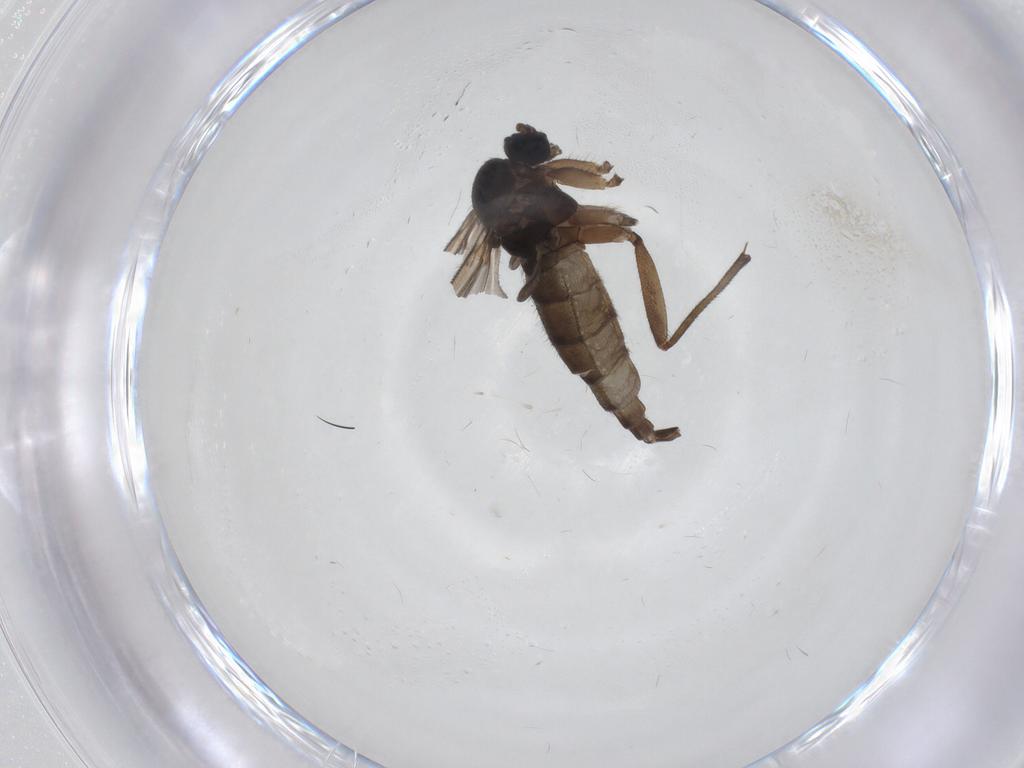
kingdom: Animalia
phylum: Arthropoda
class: Insecta
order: Diptera
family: Sciaridae
